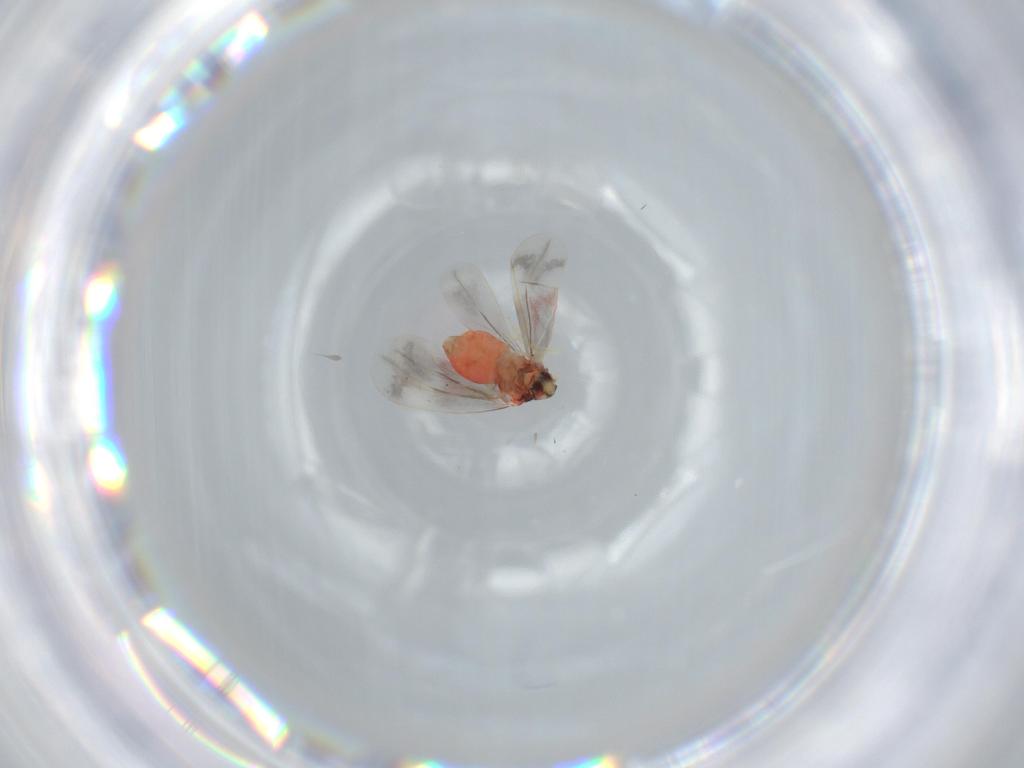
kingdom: Animalia
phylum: Arthropoda
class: Insecta
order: Hemiptera
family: Aleyrodidae
